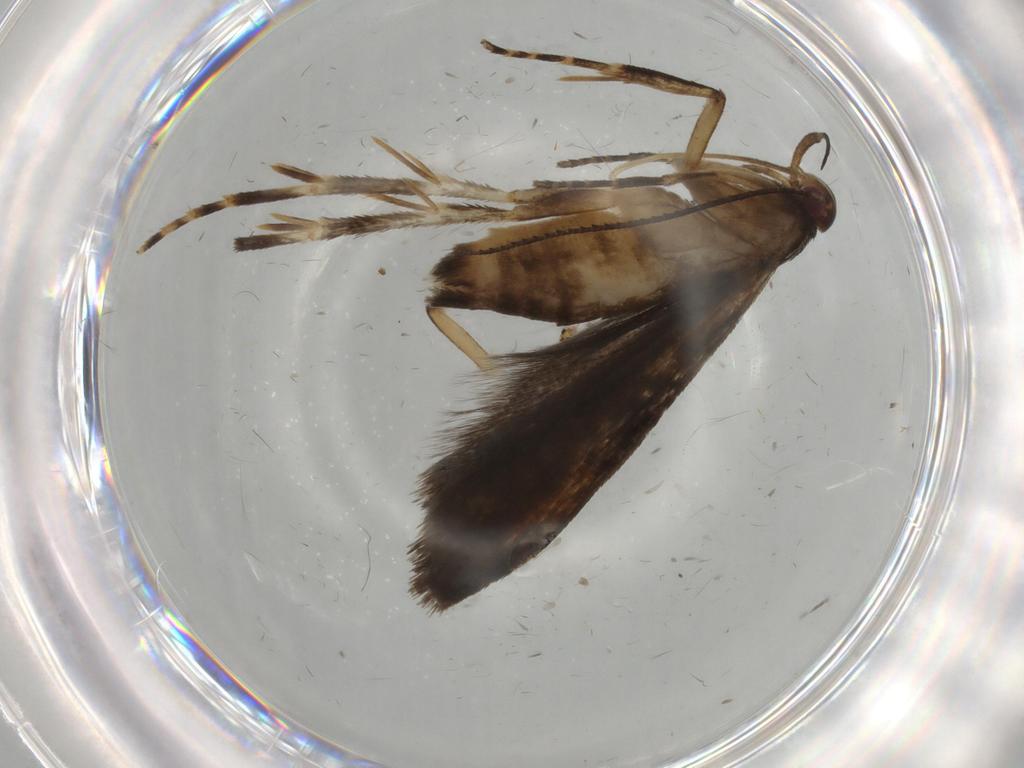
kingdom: Animalia
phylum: Arthropoda
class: Insecta
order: Lepidoptera
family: Gelechiidae
